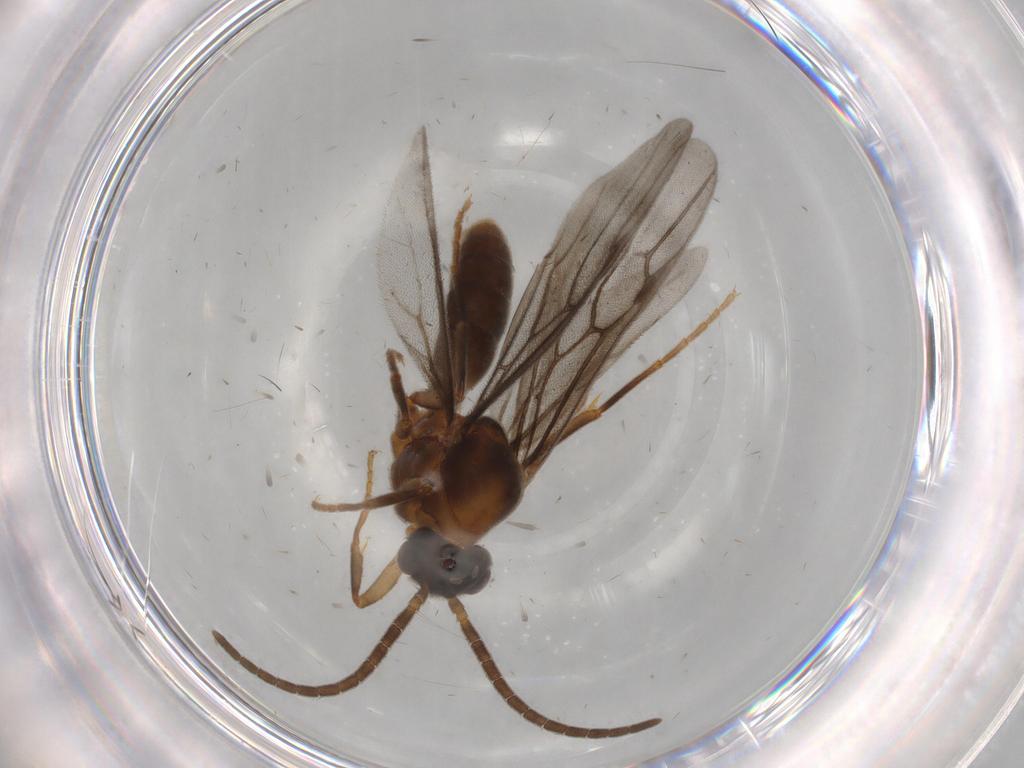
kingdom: Animalia
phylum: Arthropoda
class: Insecta
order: Hymenoptera
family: Formicidae
